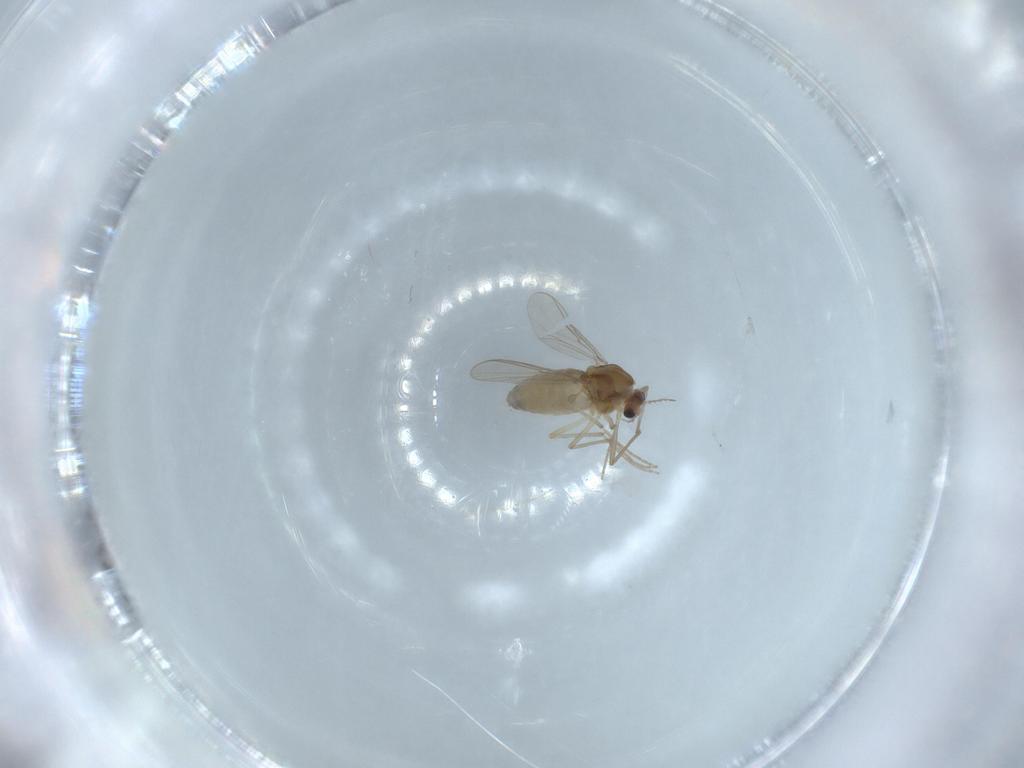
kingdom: Animalia
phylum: Arthropoda
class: Insecta
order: Diptera
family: Chironomidae
